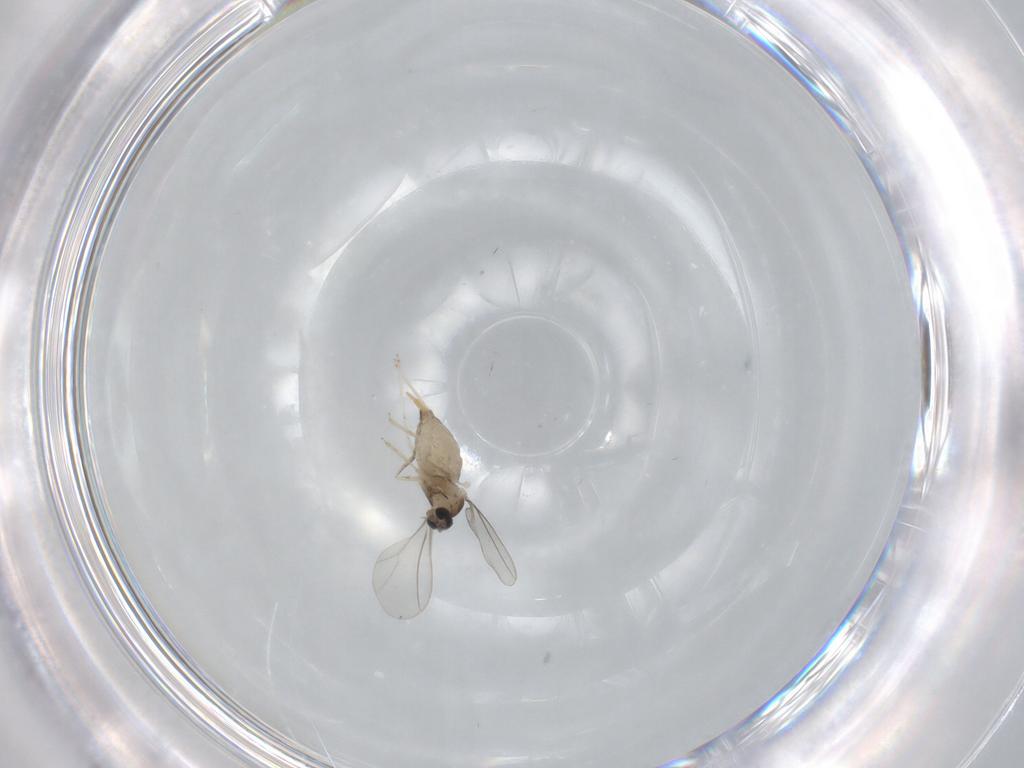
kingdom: Animalia
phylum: Arthropoda
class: Insecta
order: Diptera
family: Cecidomyiidae
